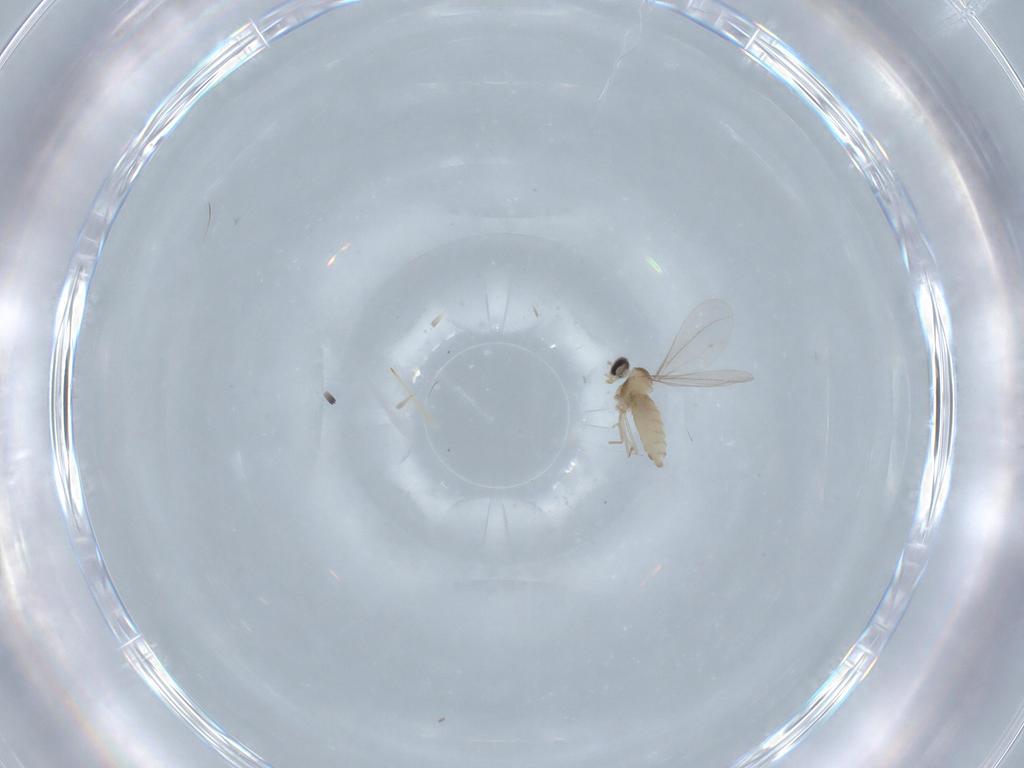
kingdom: Animalia
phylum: Arthropoda
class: Insecta
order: Diptera
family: Cecidomyiidae
